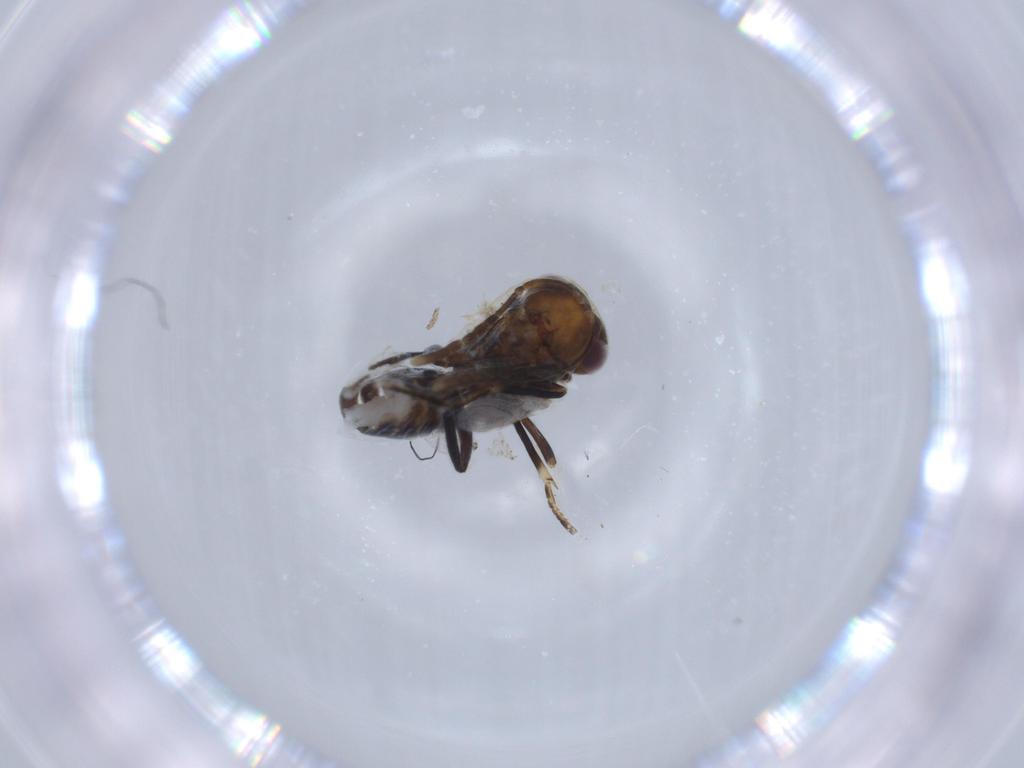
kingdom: Animalia
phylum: Arthropoda
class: Insecta
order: Hymenoptera
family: Encyrtidae
